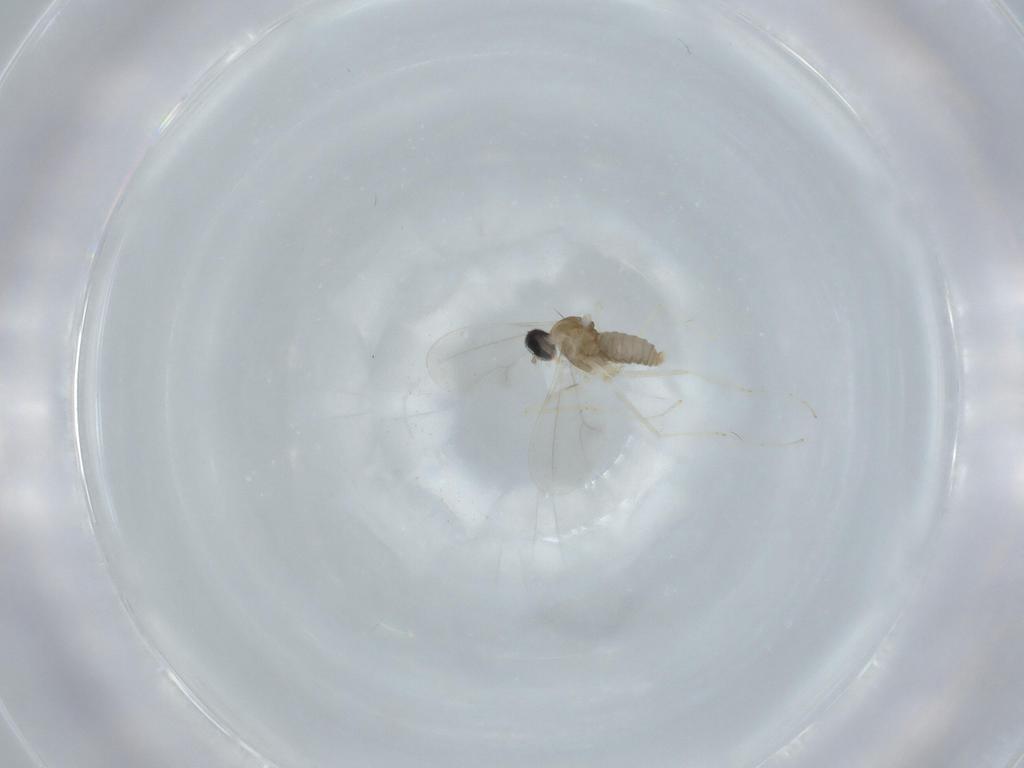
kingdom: Animalia
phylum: Arthropoda
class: Insecta
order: Diptera
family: Cecidomyiidae
